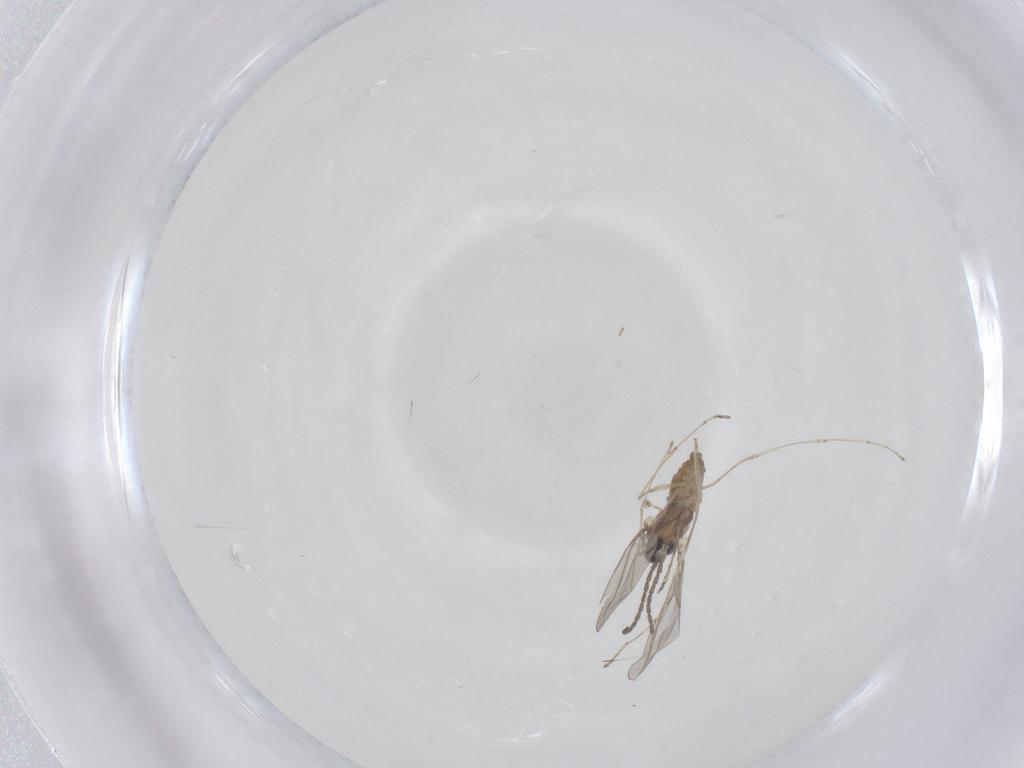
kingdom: Animalia
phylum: Arthropoda
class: Insecta
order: Diptera
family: Cecidomyiidae
